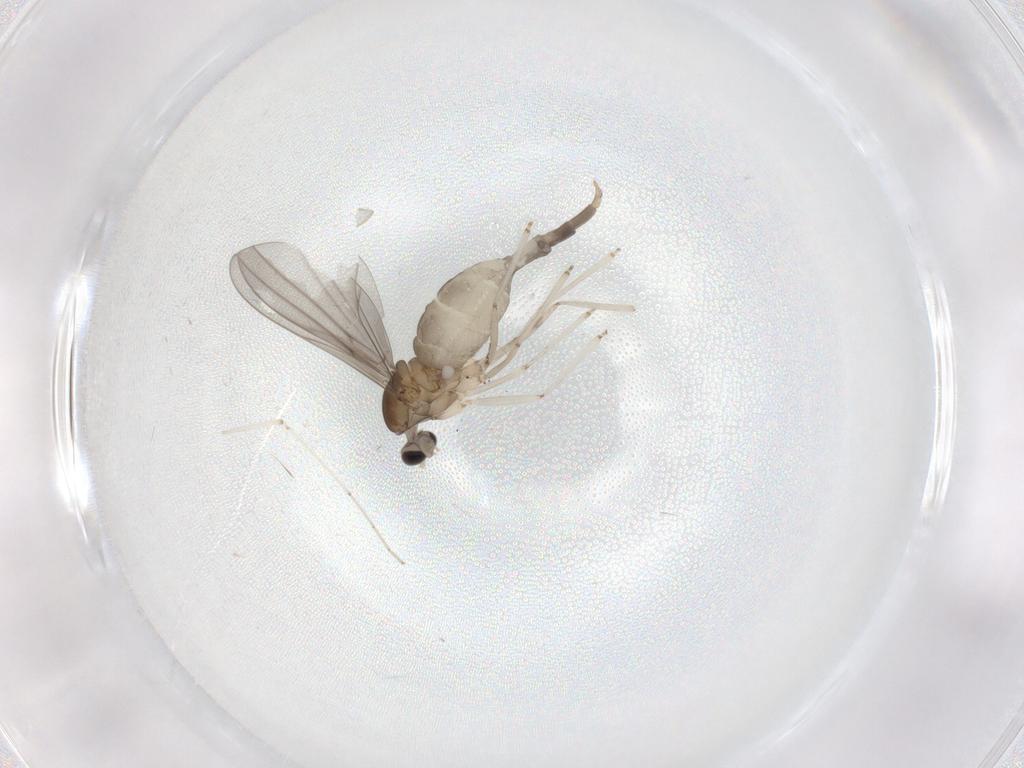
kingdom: Animalia
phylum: Arthropoda
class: Insecta
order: Diptera
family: Cecidomyiidae
